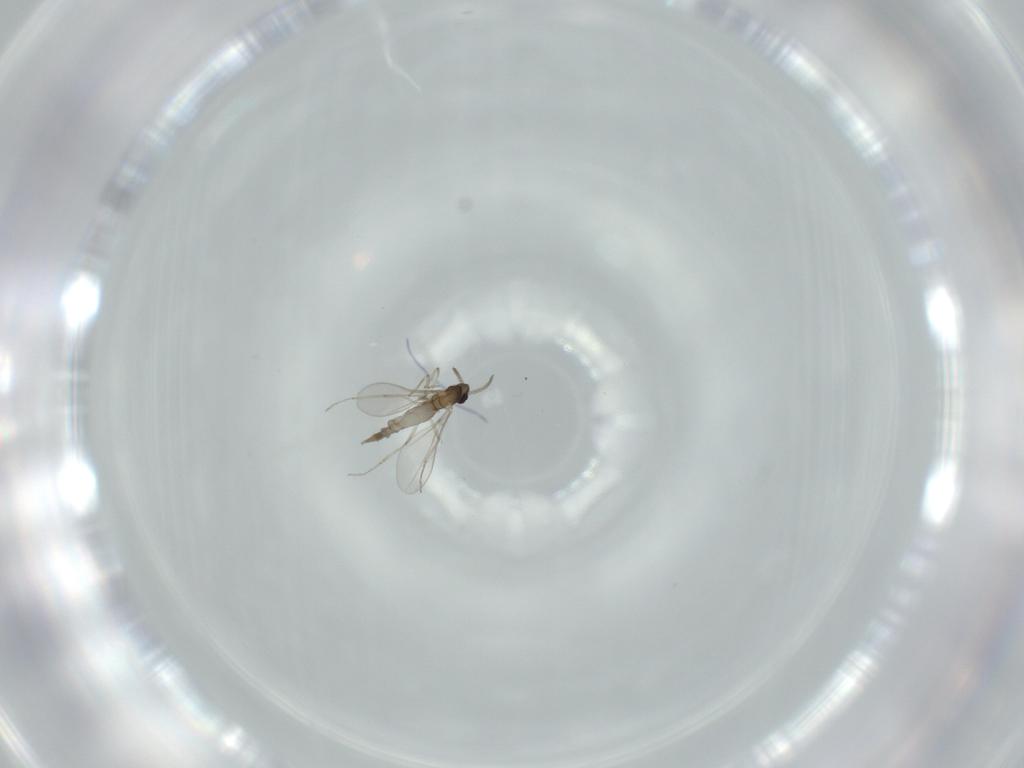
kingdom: Animalia
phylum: Arthropoda
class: Insecta
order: Diptera
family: Cecidomyiidae
